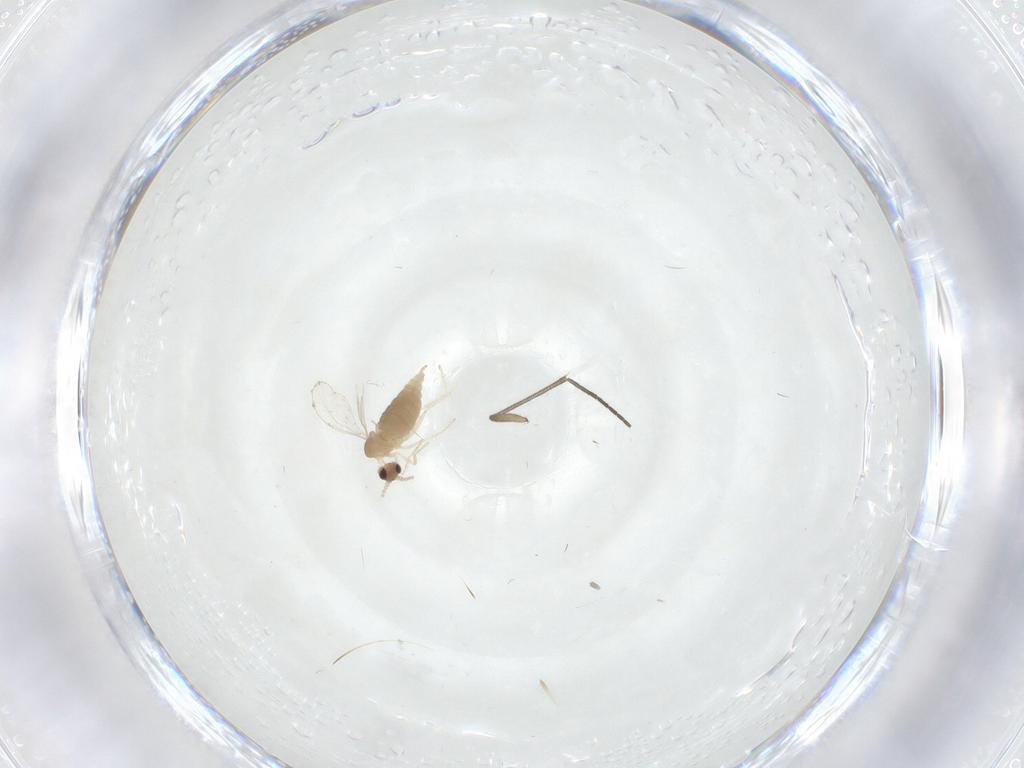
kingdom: Animalia
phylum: Arthropoda
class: Insecta
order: Diptera
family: Cecidomyiidae
